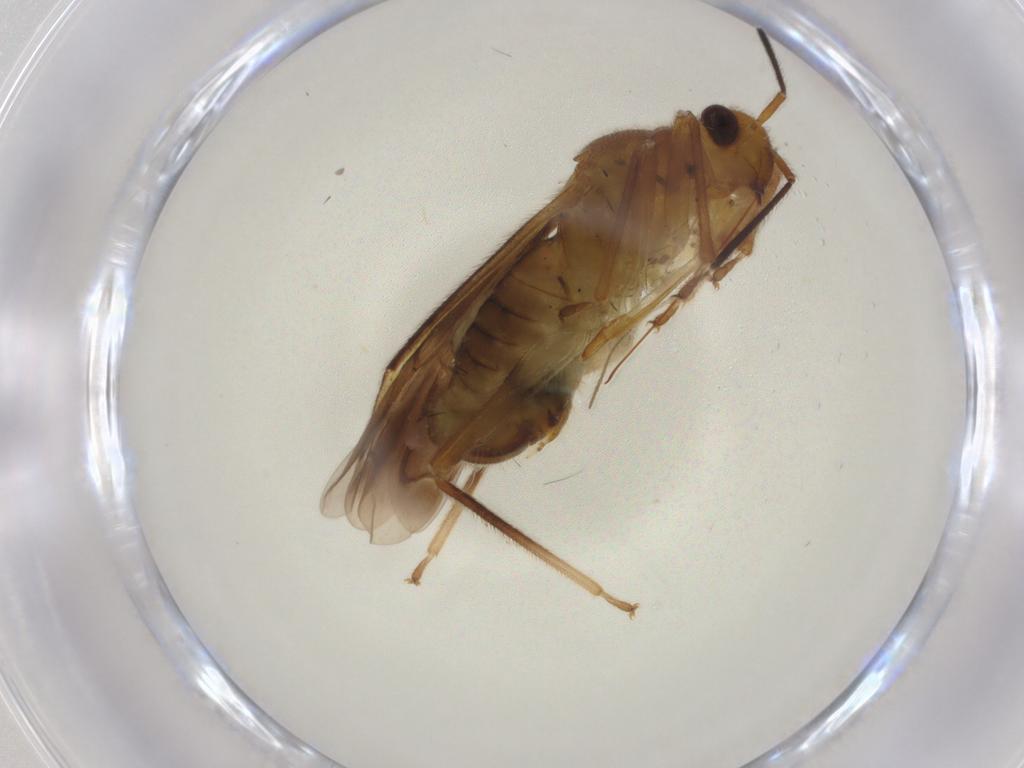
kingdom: Animalia
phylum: Arthropoda
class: Insecta
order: Hemiptera
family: Miridae
